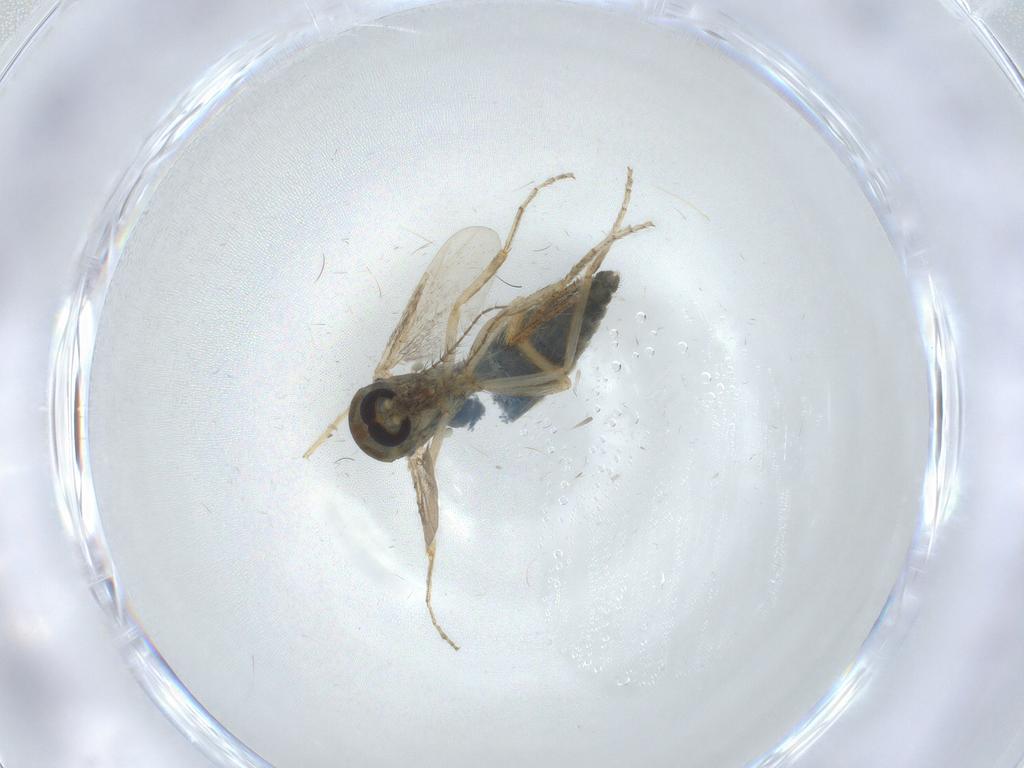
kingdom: Animalia
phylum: Arthropoda
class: Insecta
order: Diptera
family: Ceratopogonidae
